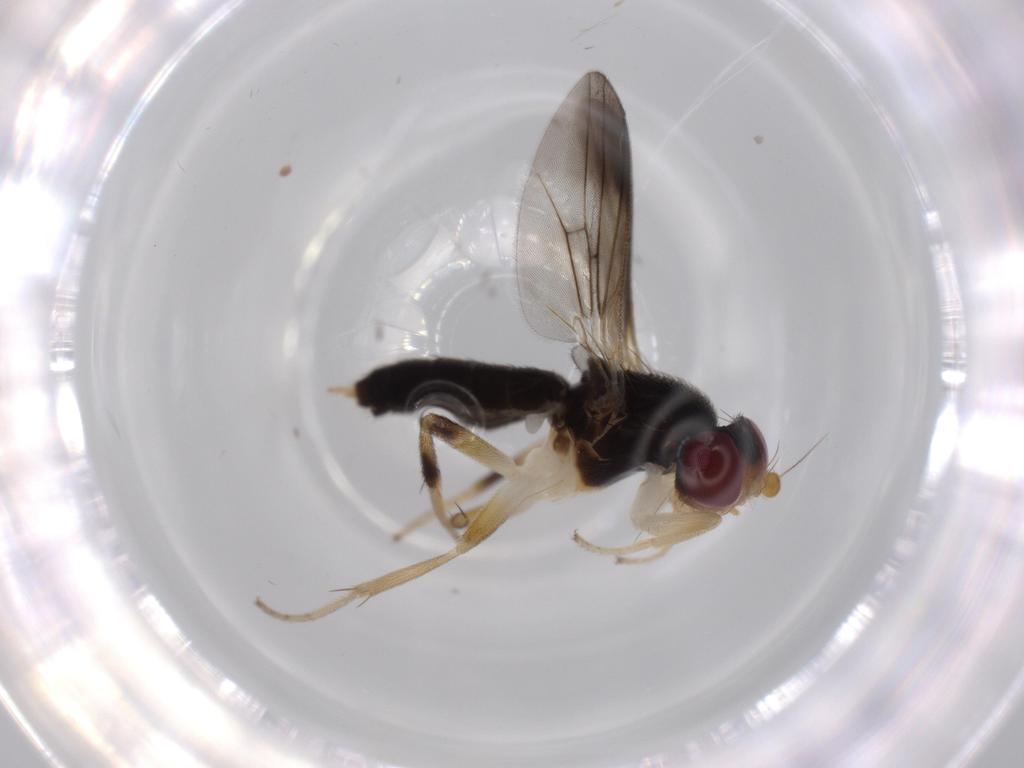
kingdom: Animalia
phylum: Arthropoda
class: Insecta
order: Diptera
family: Clusiidae
